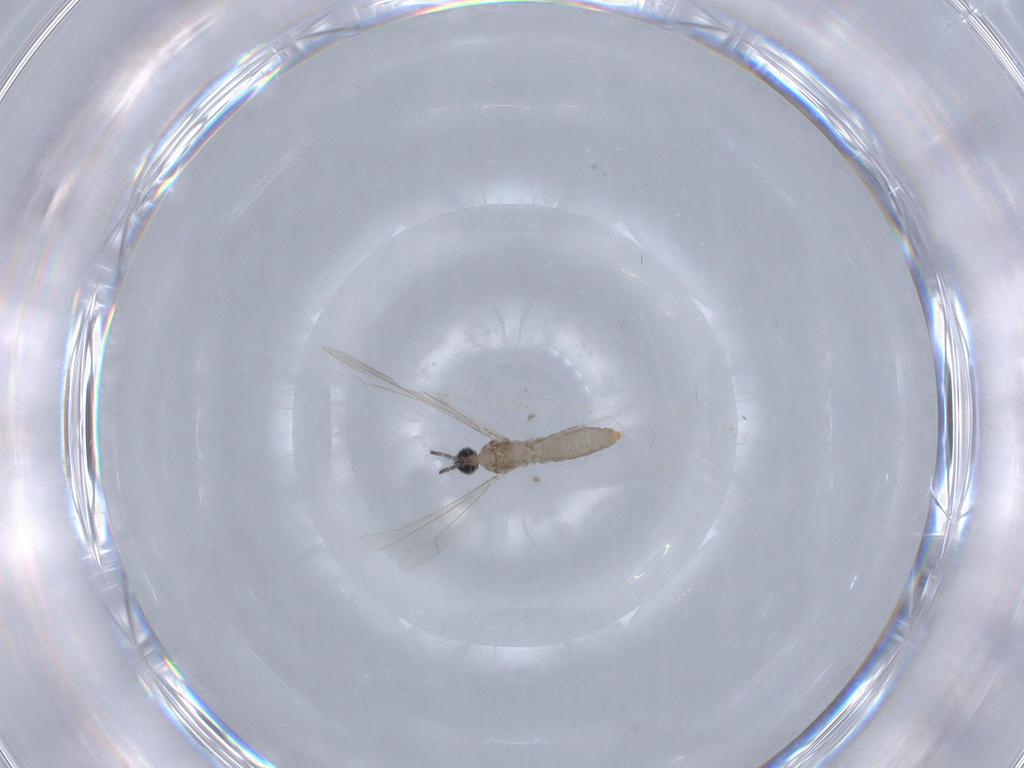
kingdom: Animalia
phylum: Arthropoda
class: Insecta
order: Diptera
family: Cecidomyiidae
